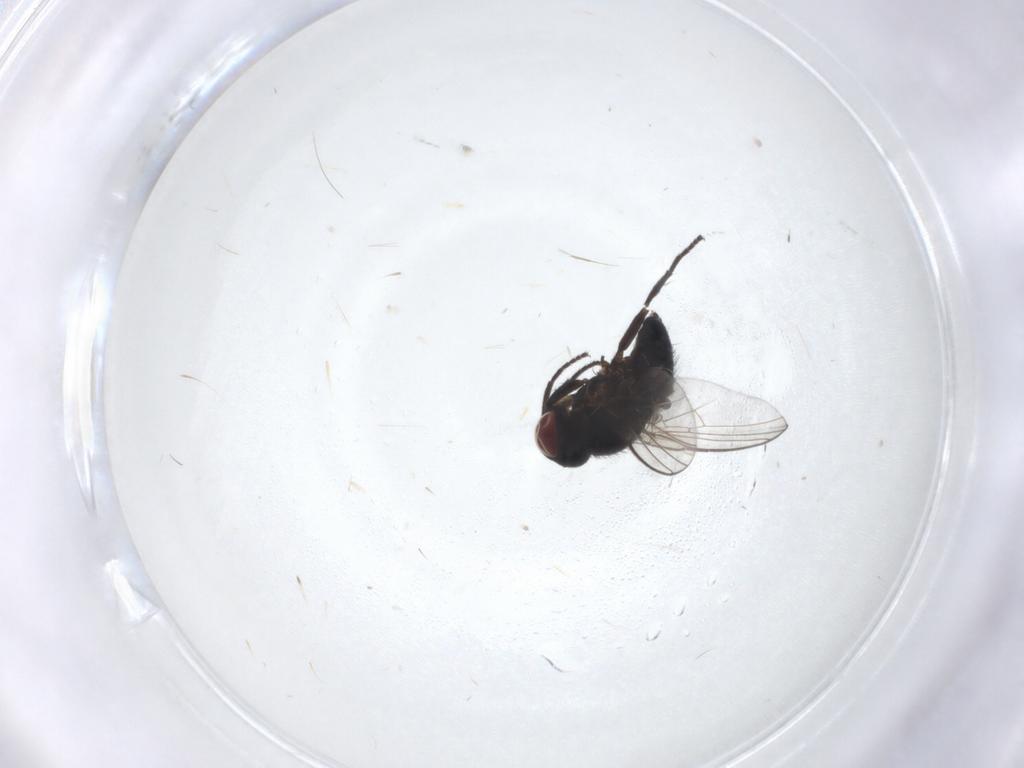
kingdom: Animalia
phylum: Arthropoda
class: Insecta
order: Diptera
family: Agromyzidae
